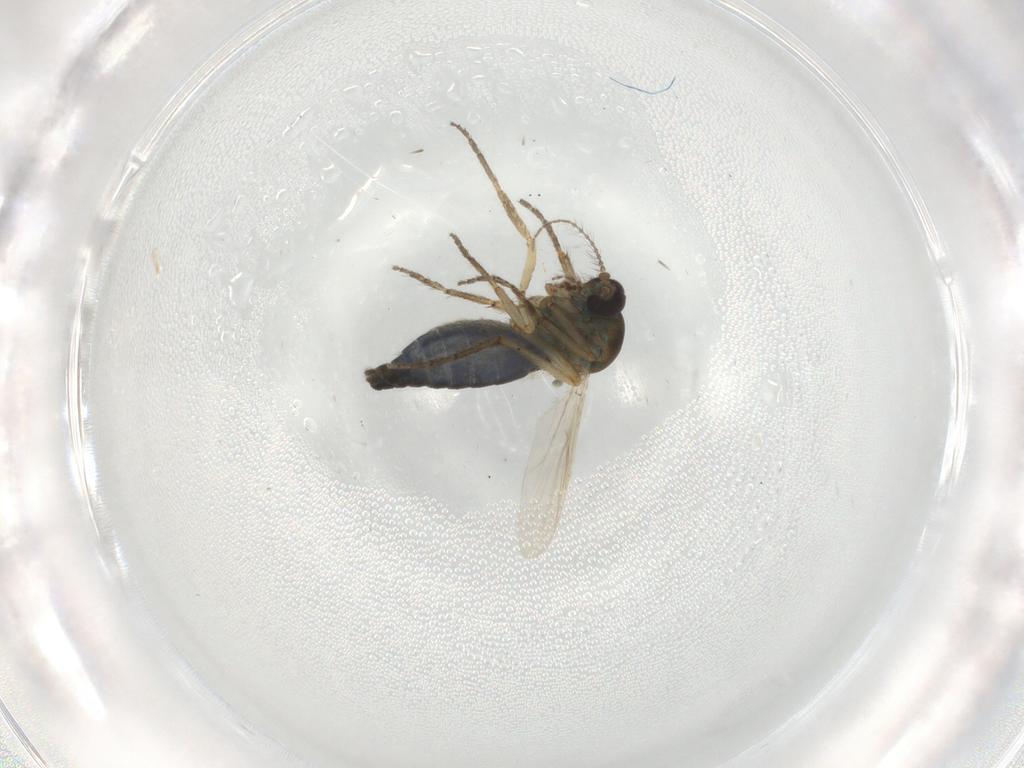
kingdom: Animalia
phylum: Arthropoda
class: Insecta
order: Diptera
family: Ceratopogonidae
